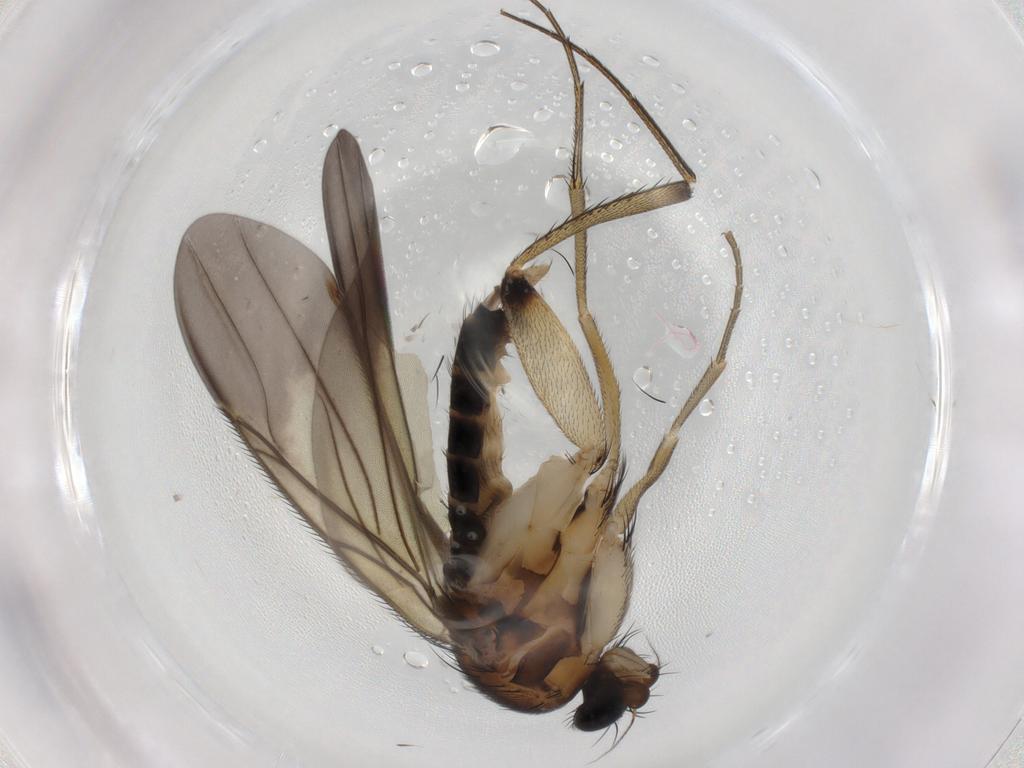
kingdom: Animalia
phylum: Arthropoda
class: Insecta
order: Diptera
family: Phoridae
